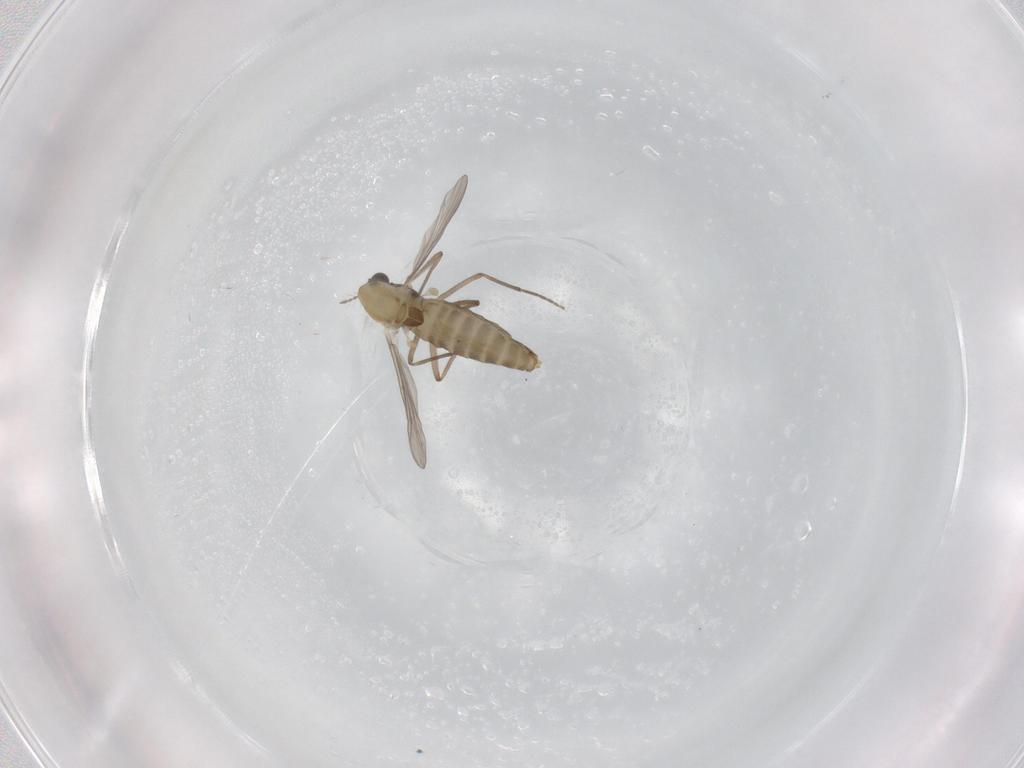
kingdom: Animalia
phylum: Arthropoda
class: Insecta
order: Diptera
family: Chironomidae
